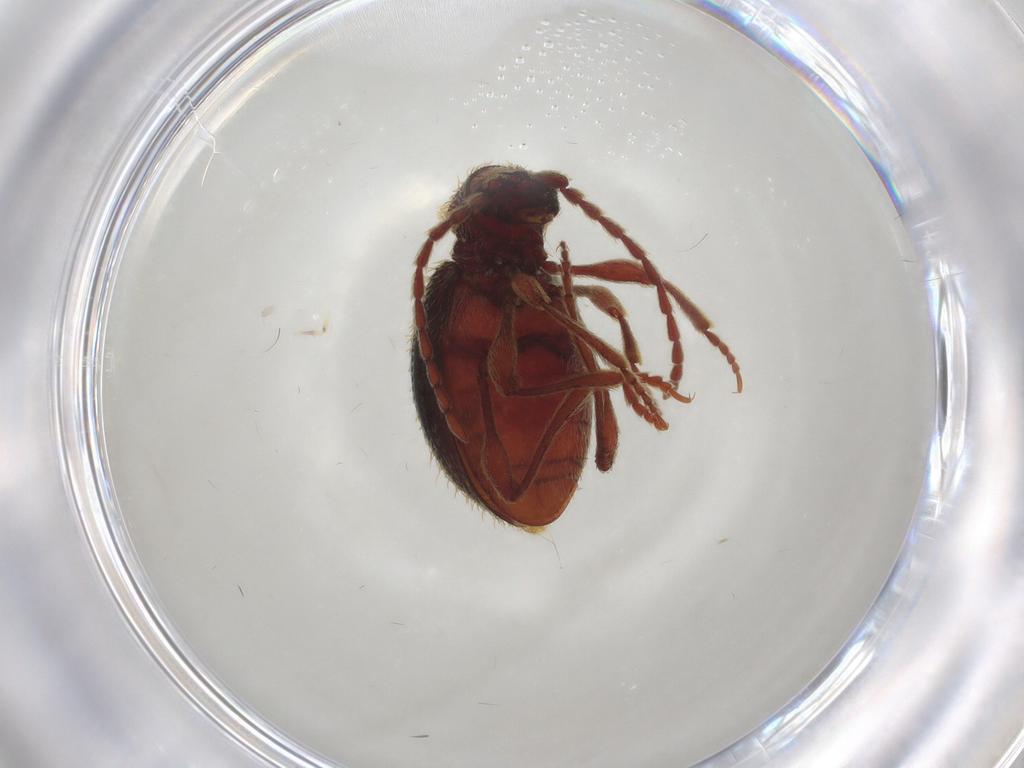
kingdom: Animalia
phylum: Arthropoda
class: Insecta
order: Coleoptera
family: Ptinidae
